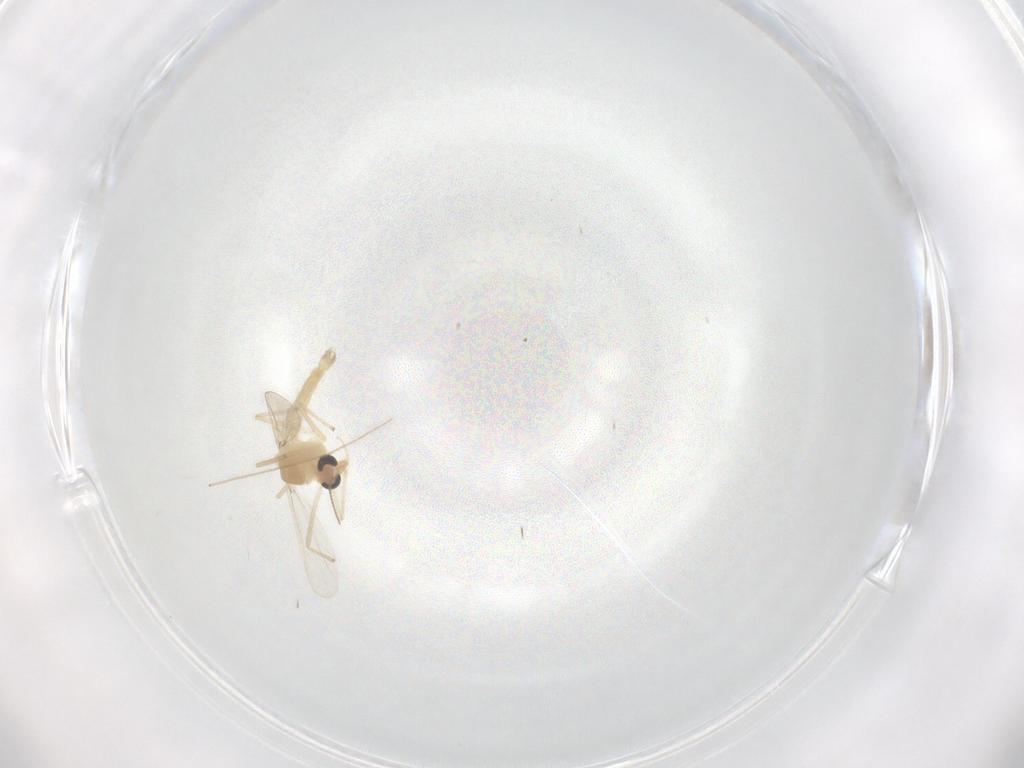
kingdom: Animalia
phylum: Arthropoda
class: Insecta
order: Diptera
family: Chironomidae
